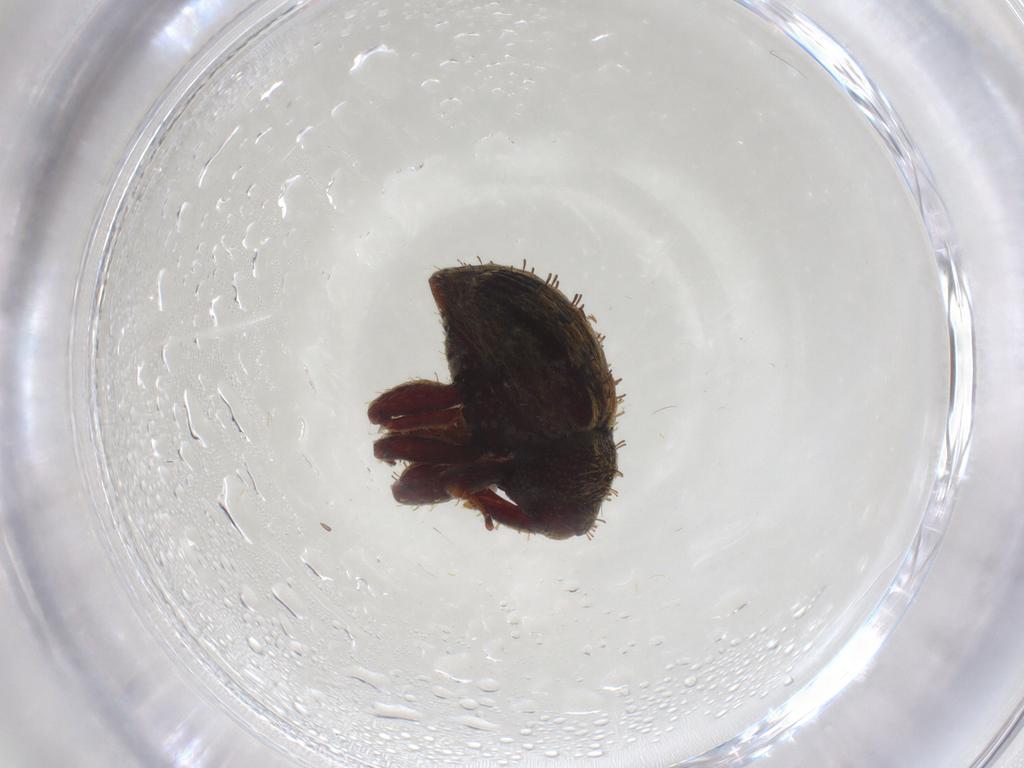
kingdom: Animalia
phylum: Arthropoda
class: Insecta
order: Coleoptera
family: Curculionidae
